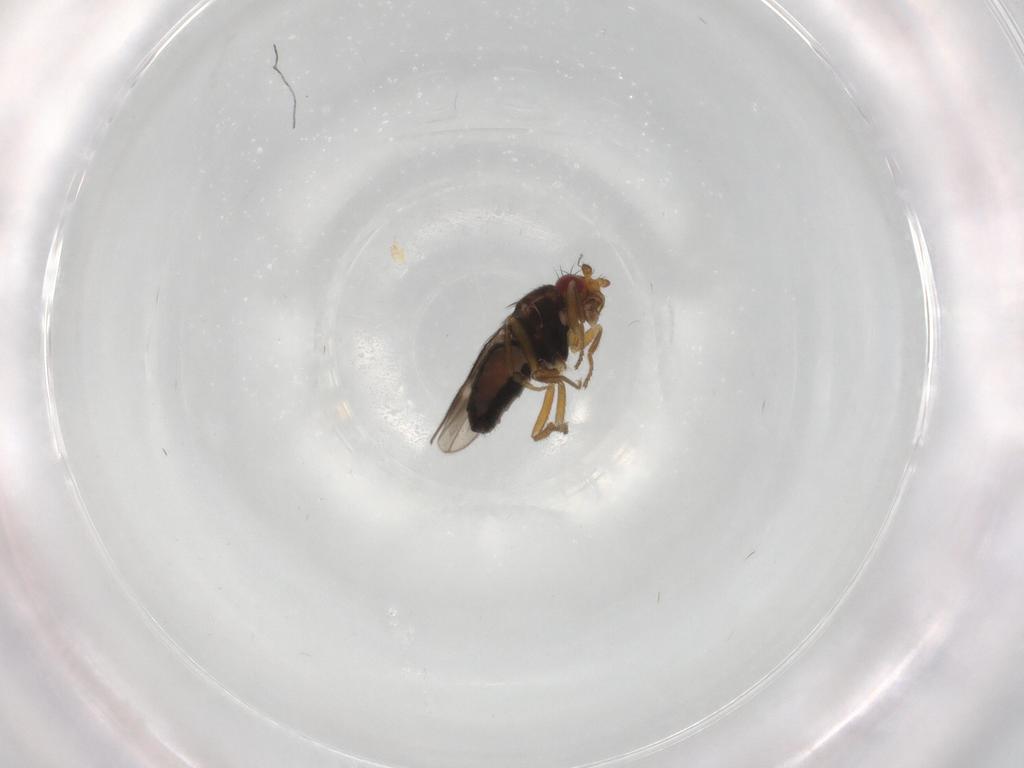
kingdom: Animalia
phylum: Arthropoda
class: Insecta
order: Diptera
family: Sphaeroceridae
